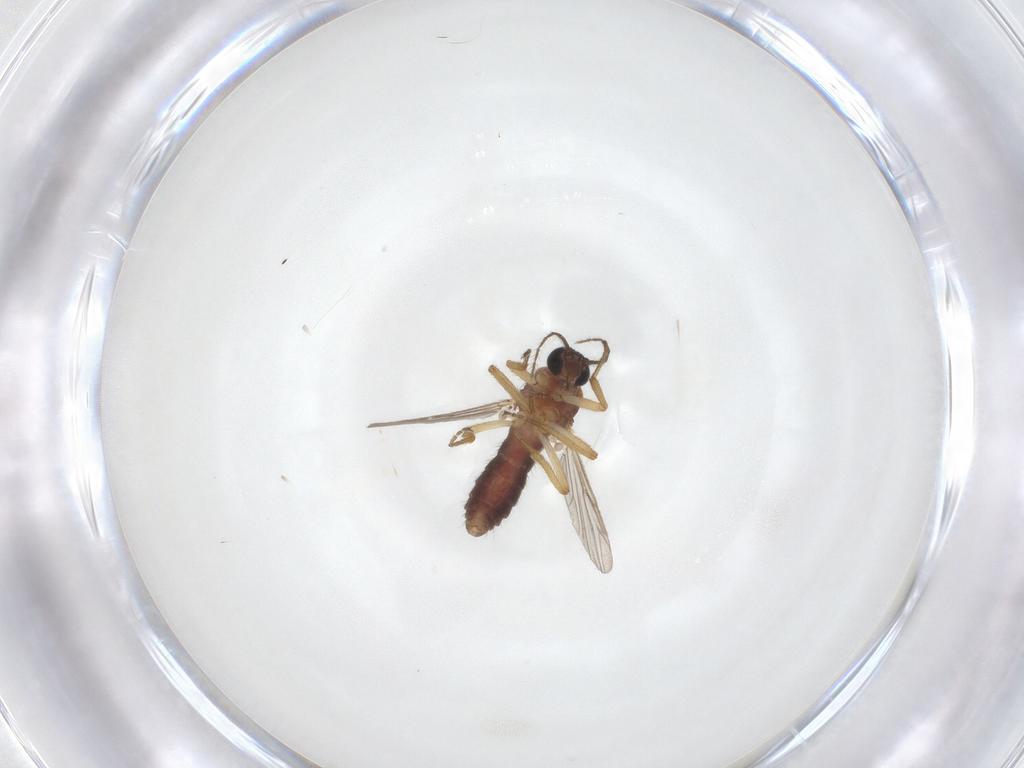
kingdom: Animalia
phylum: Arthropoda
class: Insecta
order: Diptera
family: Ceratopogonidae
